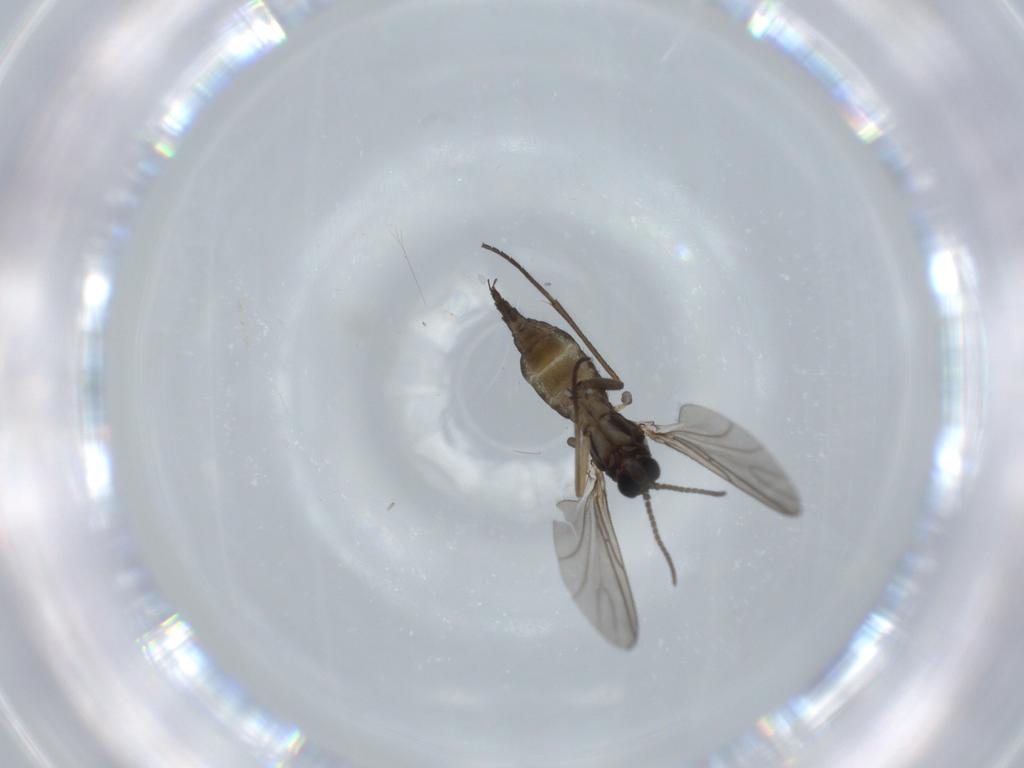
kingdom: Animalia
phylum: Arthropoda
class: Insecta
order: Diptera
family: Sciaridae
